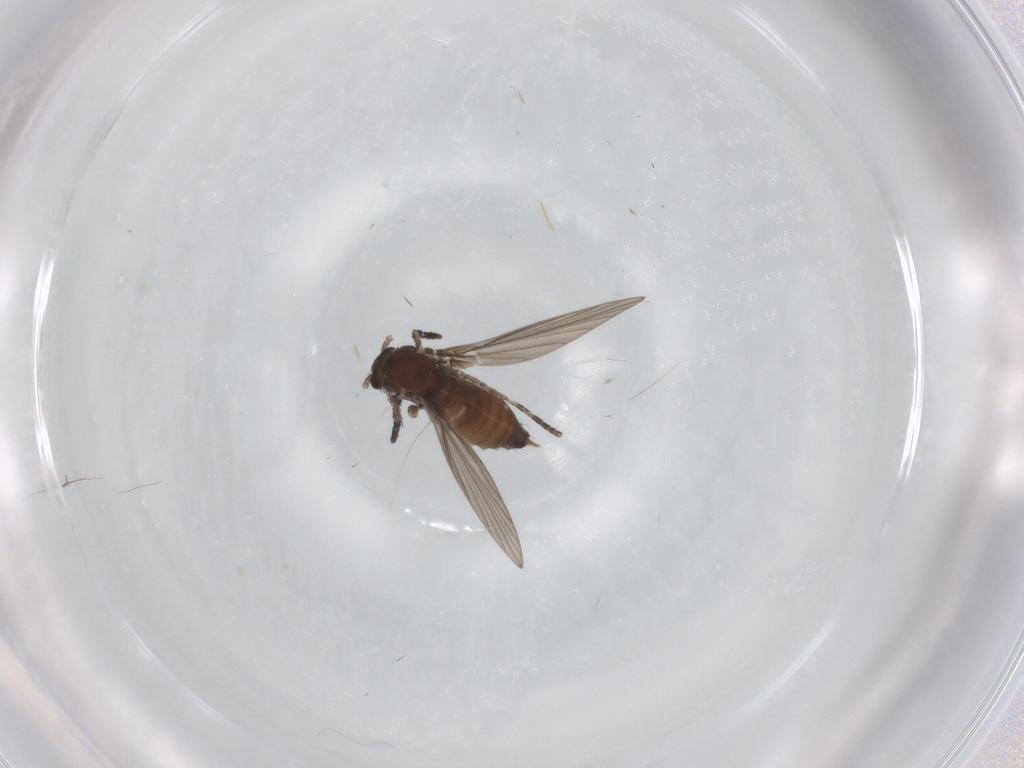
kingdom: Animalia
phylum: Arthropoda
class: Insecta
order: Diptera
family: Psychodidae
